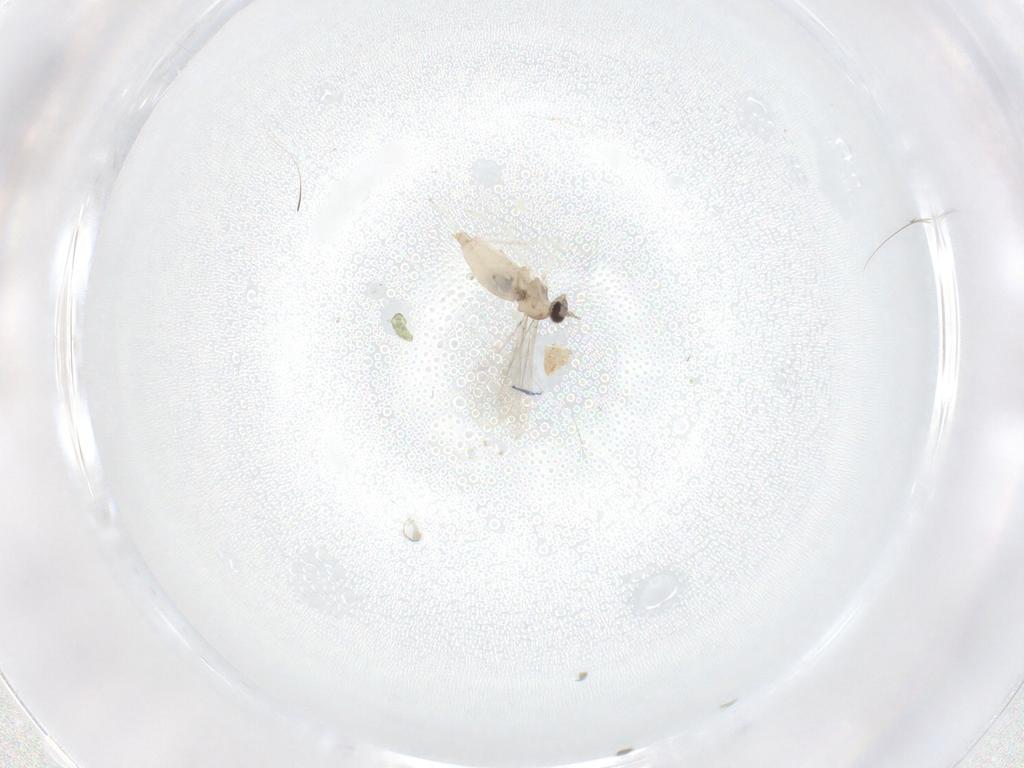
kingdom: Animalia
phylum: Arthropoda
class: Insecta
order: Diptera
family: Cecidomyiidae
